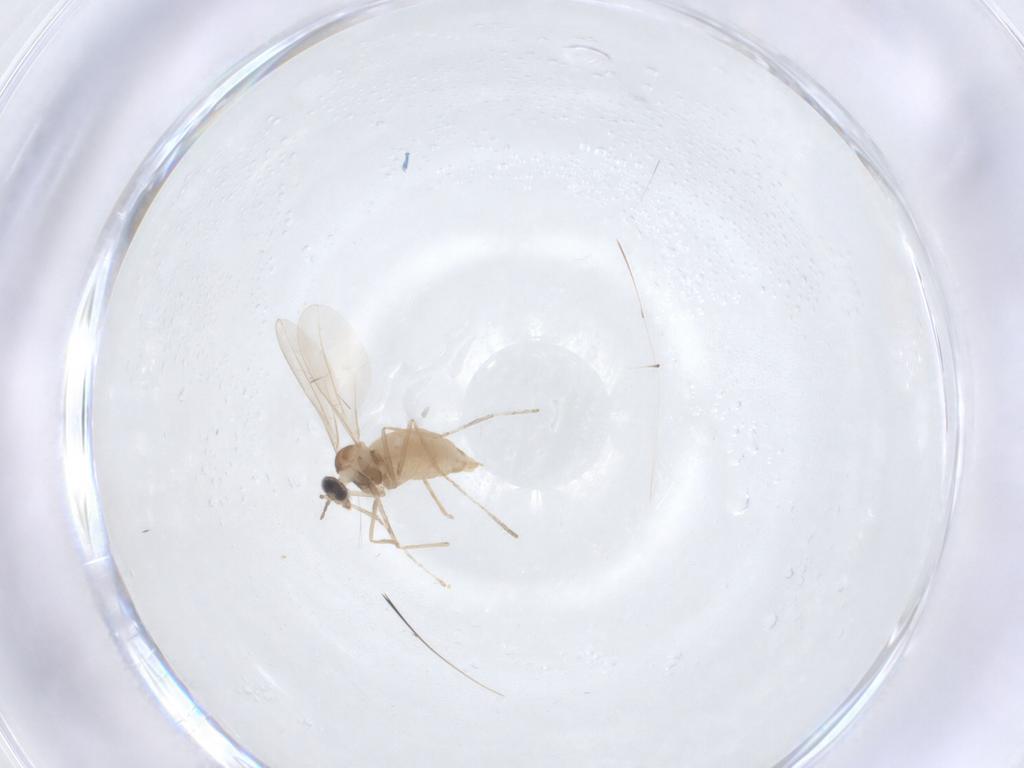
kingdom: Animalia
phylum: Arthropoda
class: Insecta
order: Diptera
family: Cecidomyiidae
